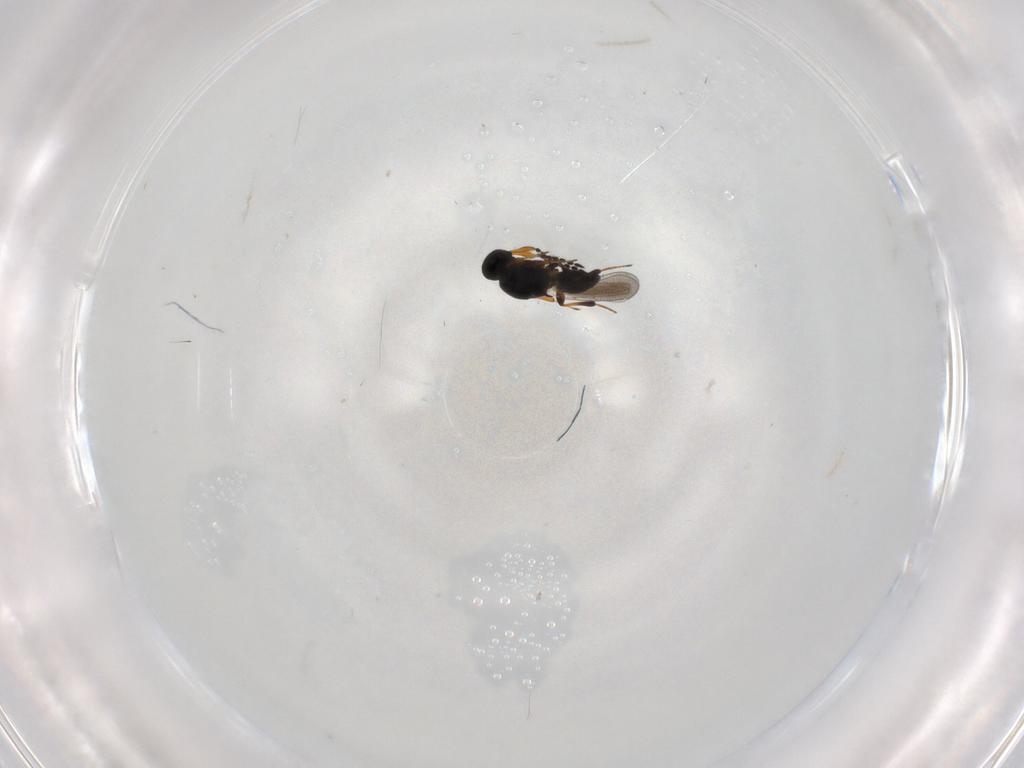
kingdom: Animalia
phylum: Arthropoda
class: Insecta
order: Hymenoptera
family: Platygastridae
